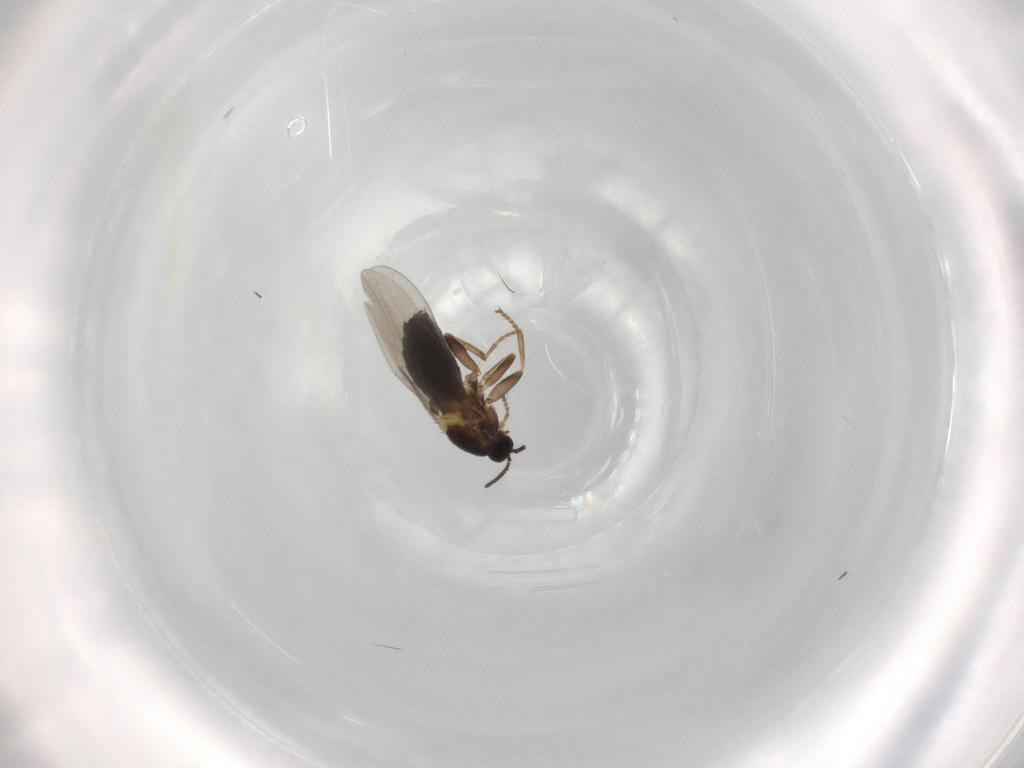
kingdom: Animalia
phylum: Arthropoda
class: Insecta
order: Diptera
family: Scatopsidae
